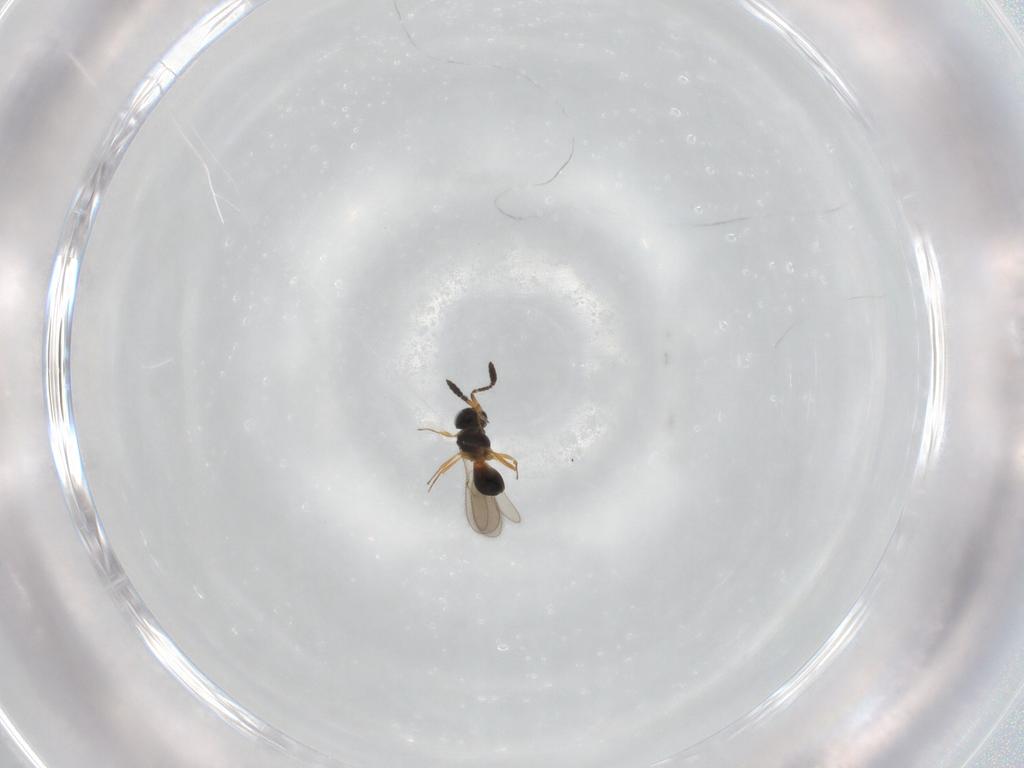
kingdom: Animalia
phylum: Arthropoda
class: Insecta
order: Hymenoptera
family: Scelionidae
